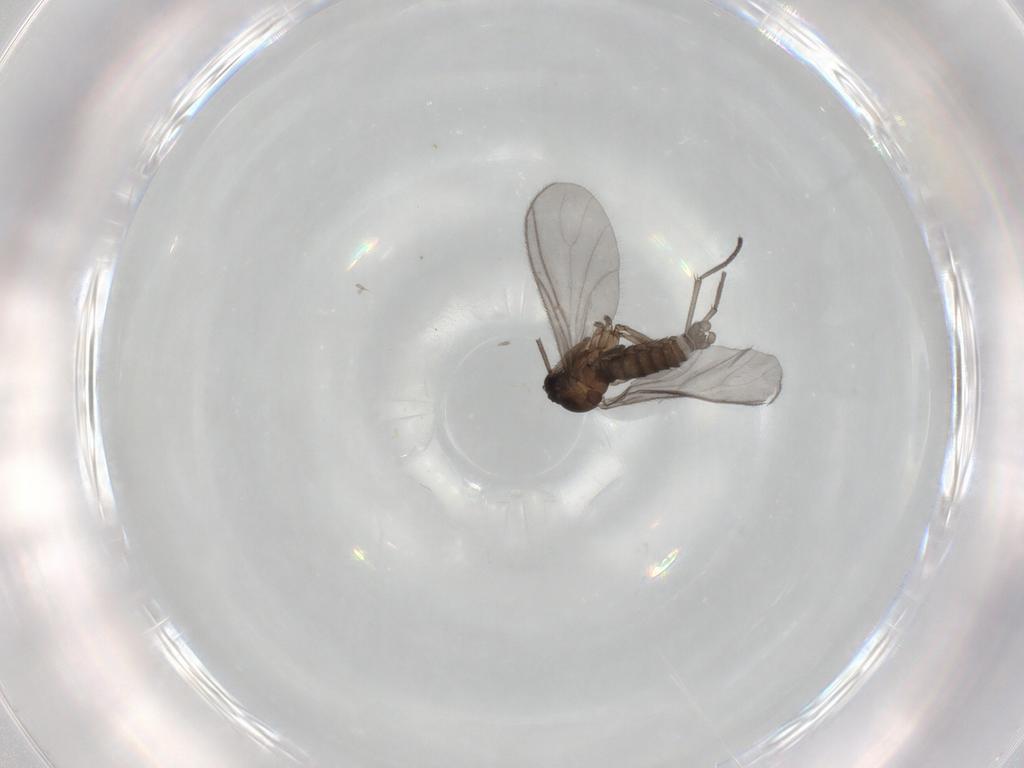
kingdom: Animalia
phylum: Arthropoda
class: Insecta
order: Diptera
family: Sciaridae
